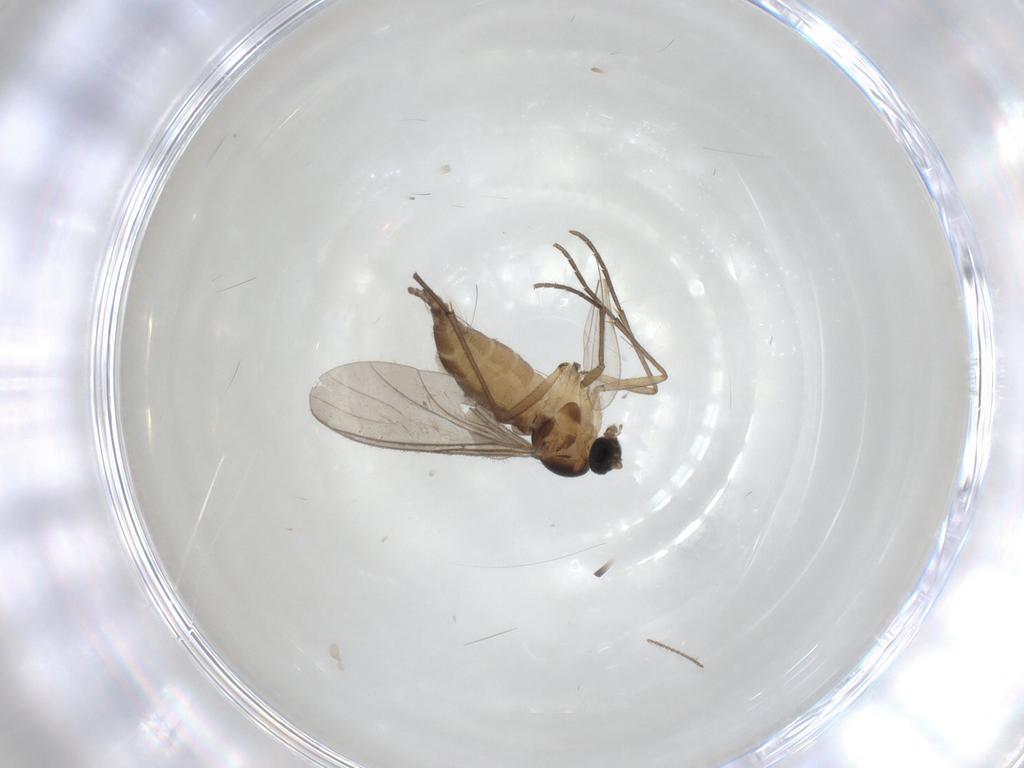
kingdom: Animalia
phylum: Arthropoda
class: Insecta
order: Diptera
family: Sciaridae
